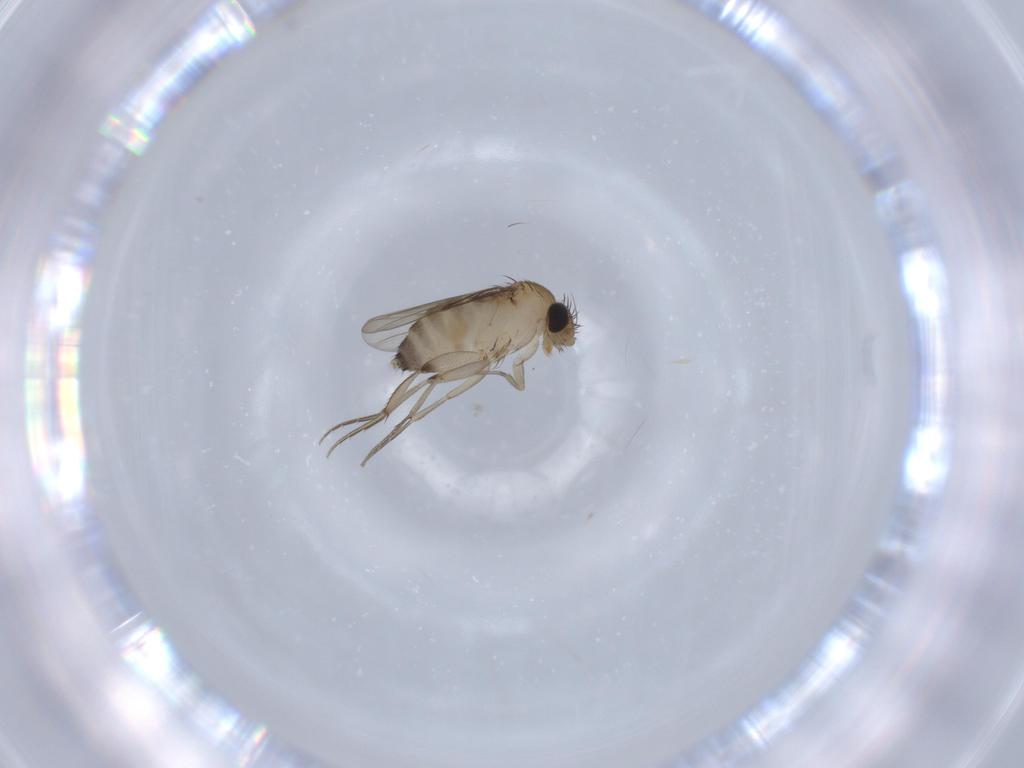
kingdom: Animalia
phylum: Arthropoda
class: Insecta
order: Diptera
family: Phoridae
